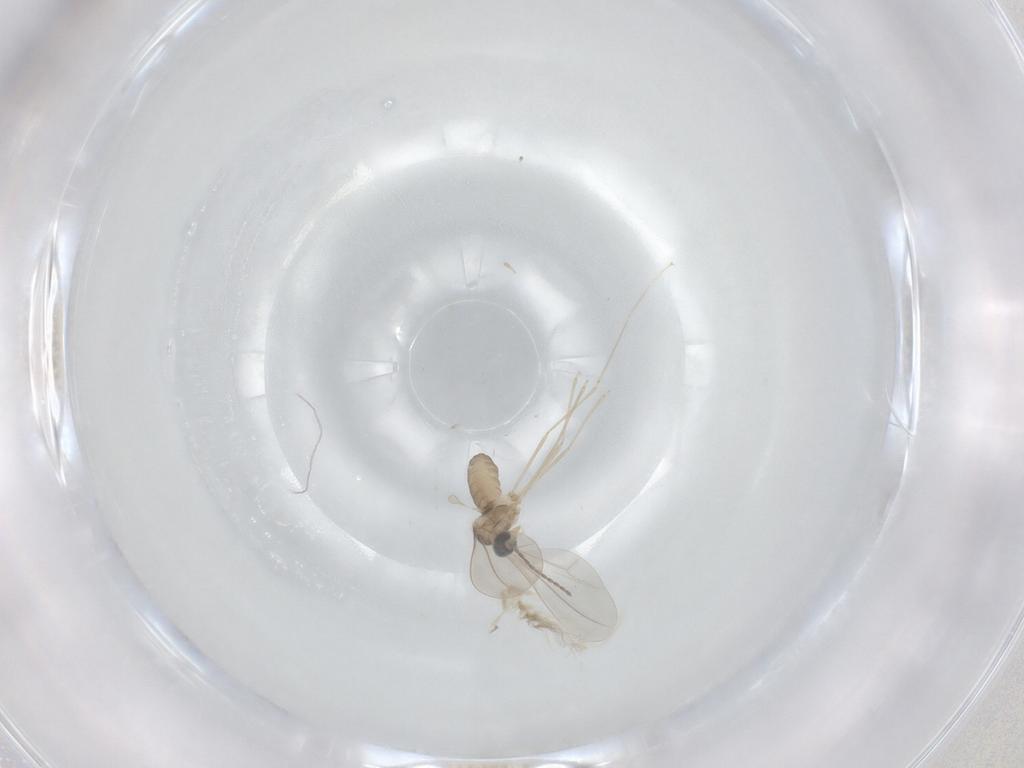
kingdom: Animalia
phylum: Arthropoda
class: Insecta
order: Diptera
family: Cecidomyiidae
